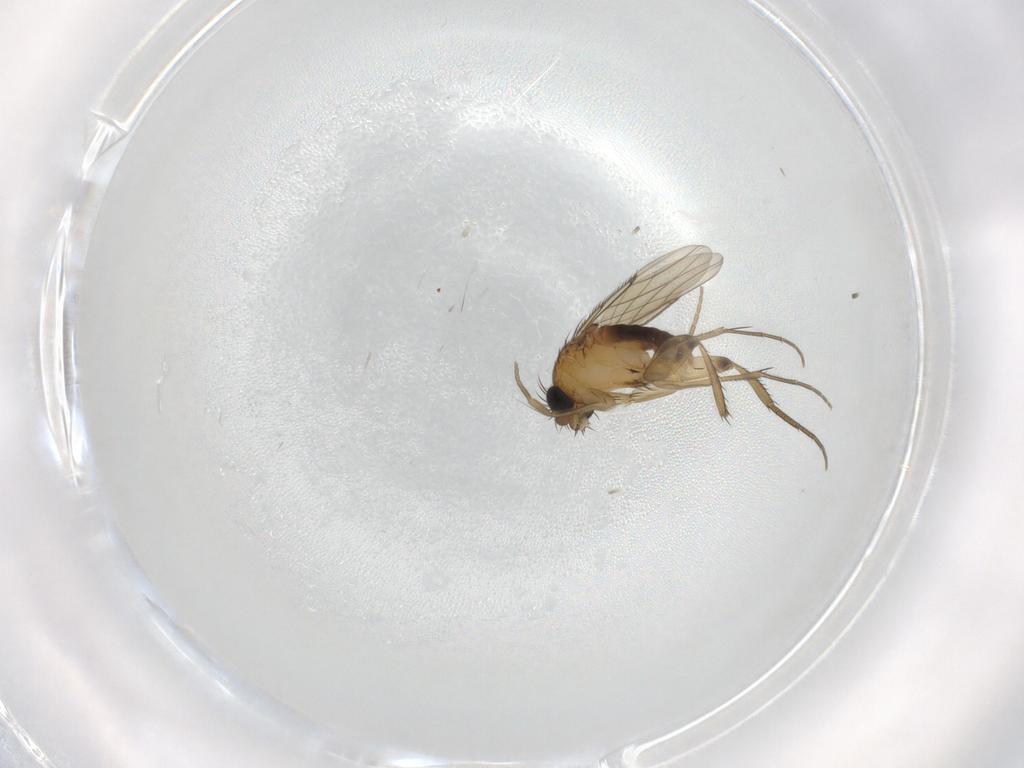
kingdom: Animalia
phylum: Arthropoda
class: Insecta
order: Diptera
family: Phoridae
